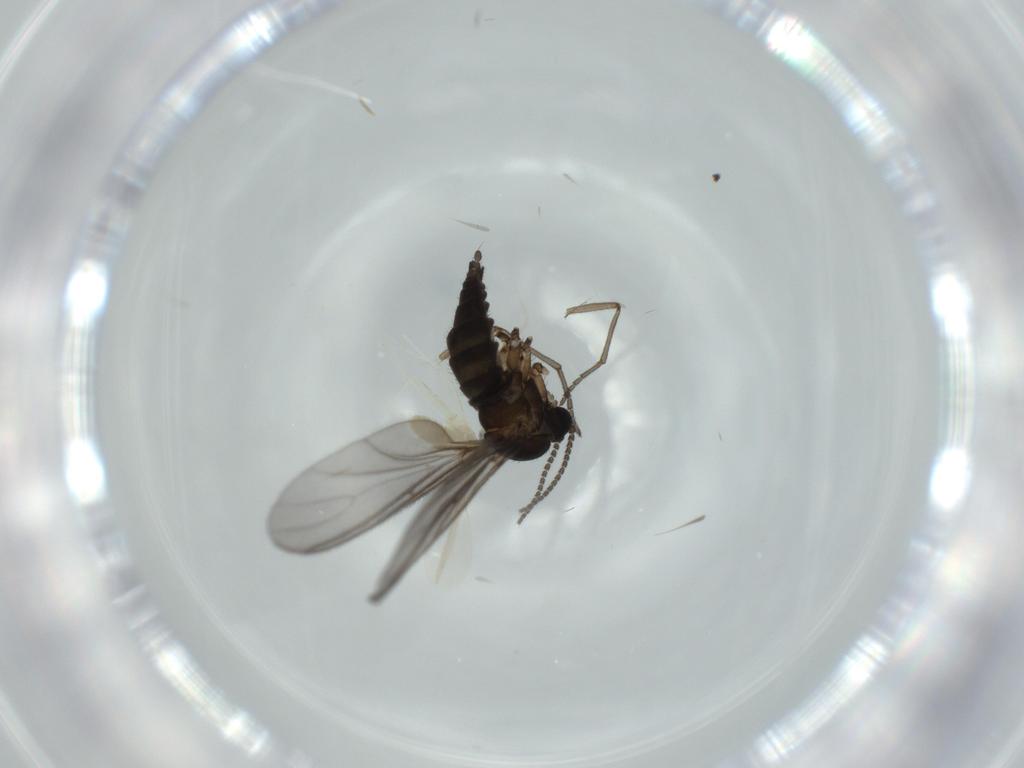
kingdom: Animalia
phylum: Arthropoda
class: Insecta
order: Diptera
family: Sciaridae
